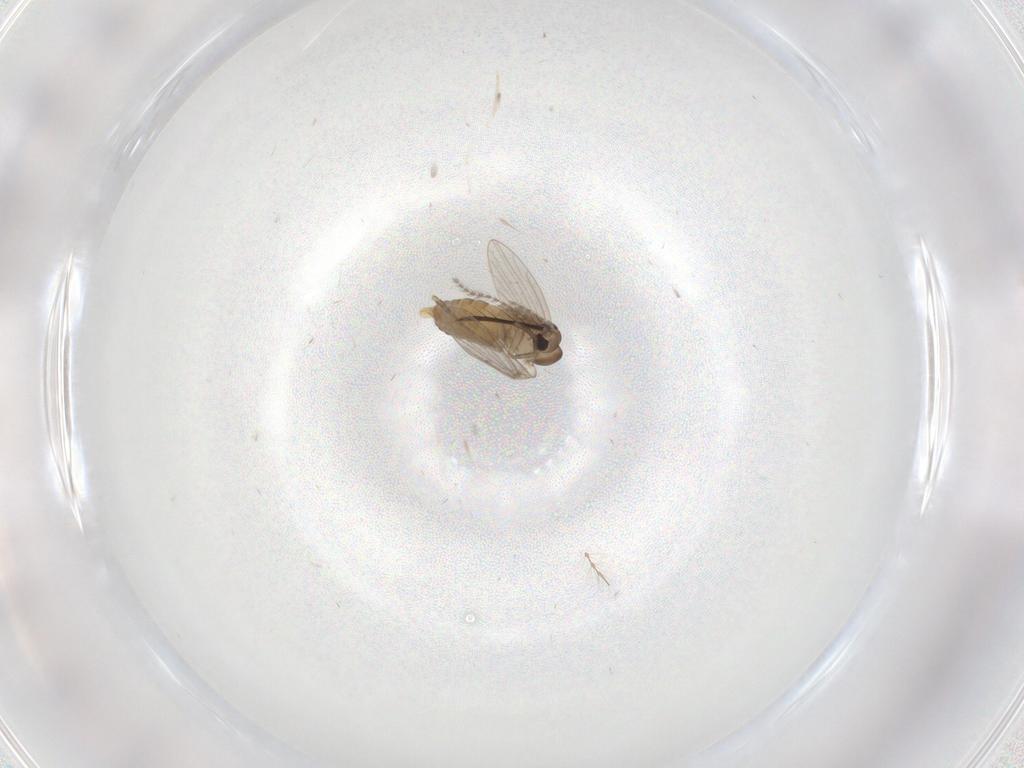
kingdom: Animalia
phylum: Arthropoda
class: Insecta
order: Diptera
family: Cecidomyiidae
